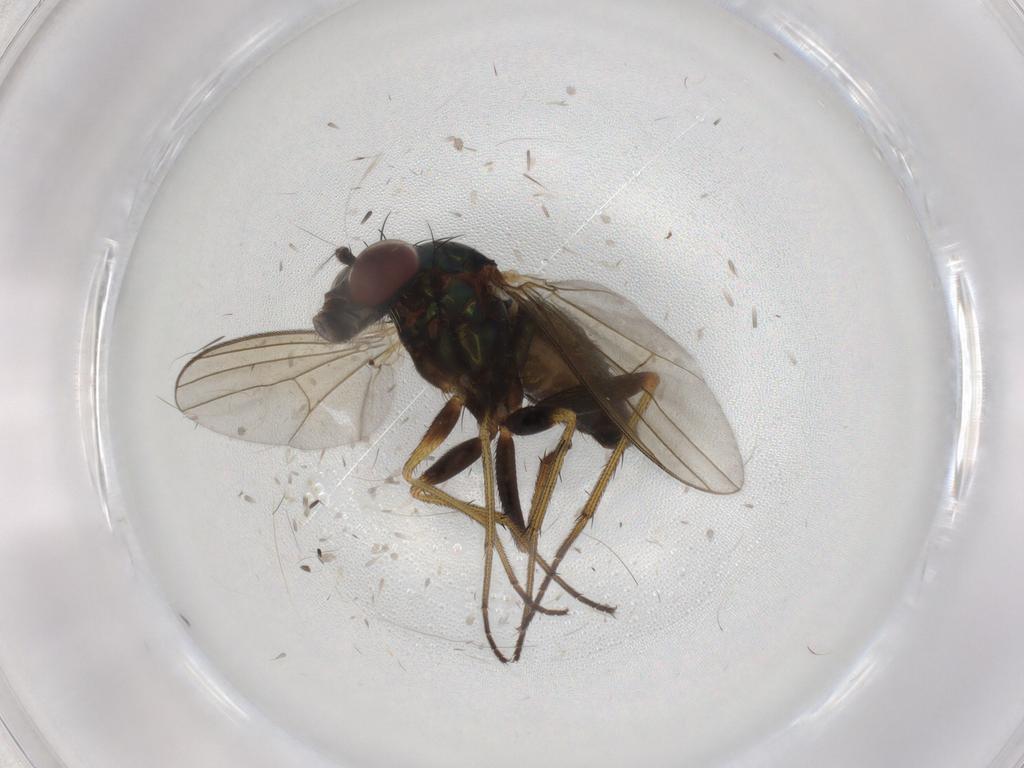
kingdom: Animalia
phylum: Arthropoda
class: Insecta
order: Diptera
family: Dolichopodidae
